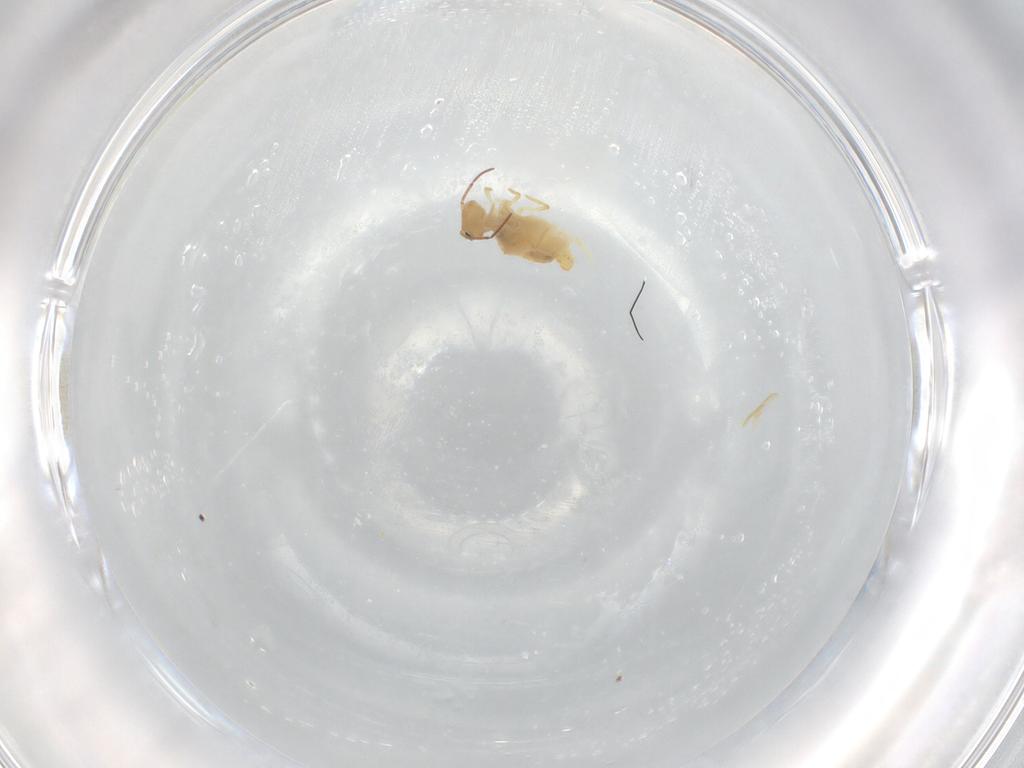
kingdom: Animalia
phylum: Arthropoda
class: Collembola
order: Symphypleona
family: Bourletiellidae
